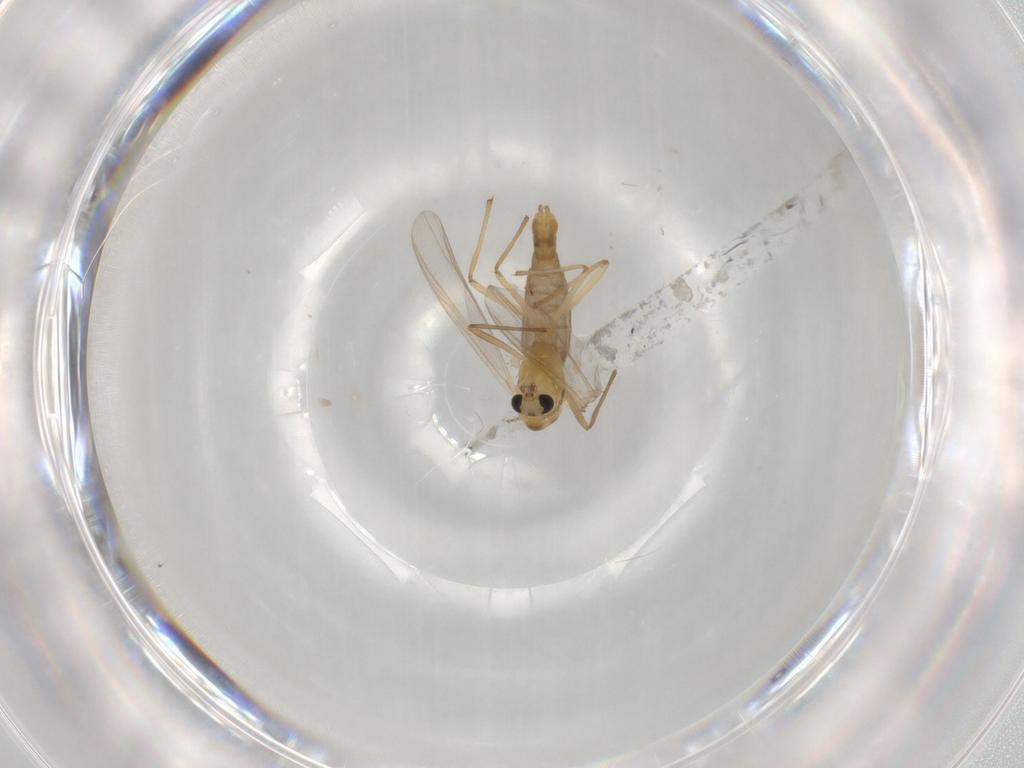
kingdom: Animalia
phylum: Arthropoda
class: Insecta
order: Diptera
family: Chironomidae
